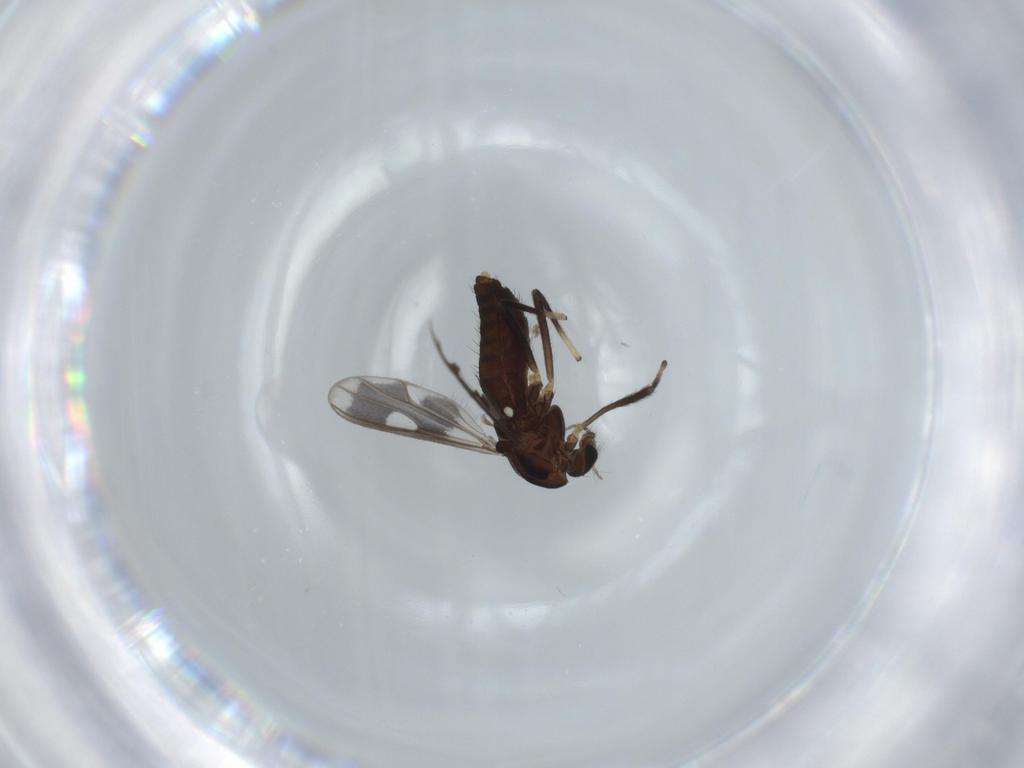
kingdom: Animalia
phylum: Arthropoda
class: Insecta
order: Diptera
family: Chironomidae
